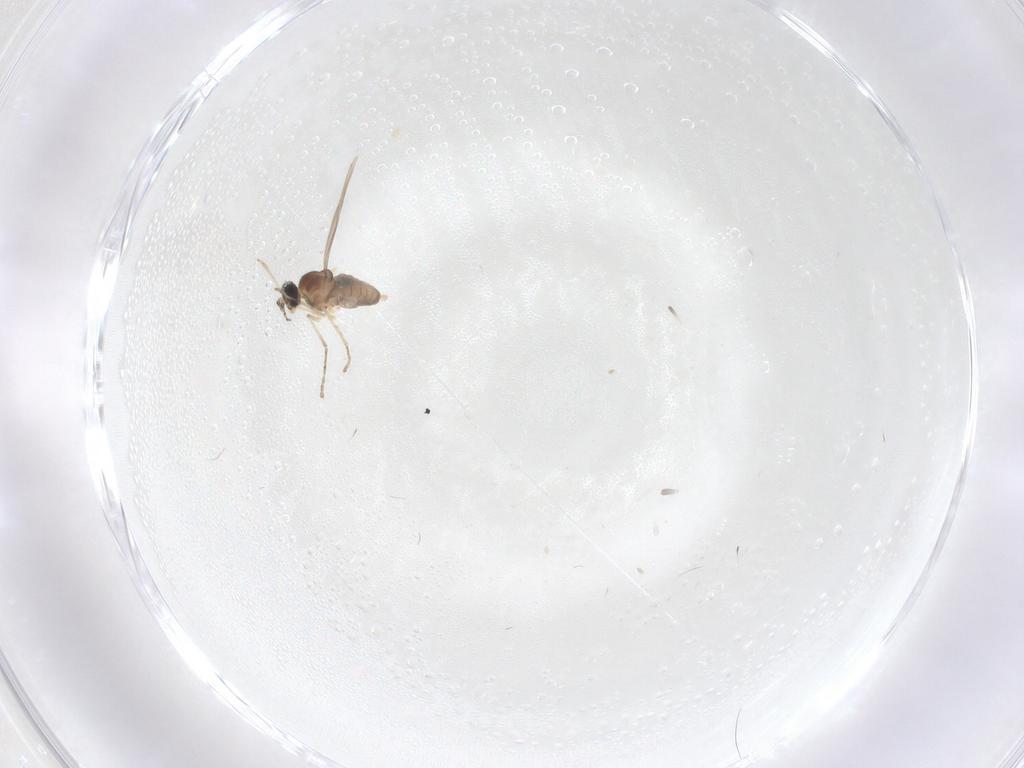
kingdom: Animalia
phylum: Arthropoda
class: Insecta
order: Diptera
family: Cecidomyiidae
